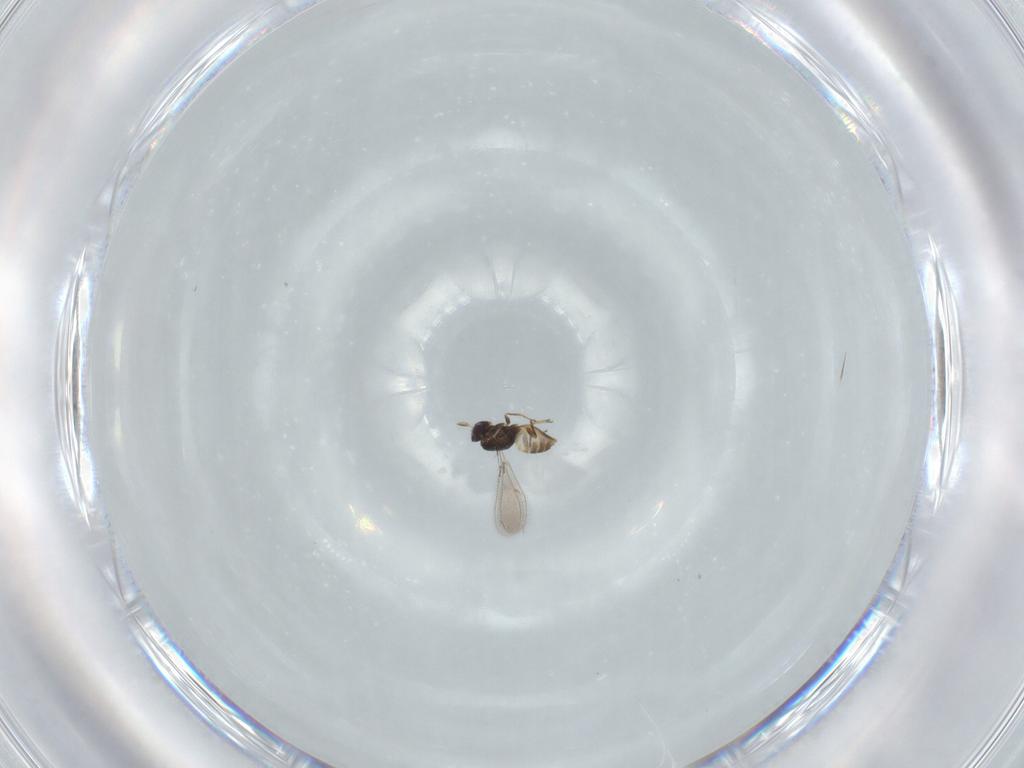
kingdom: Animalia
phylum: Arthropoda
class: Insecta
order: Hymenoptera
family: Mymaridae
